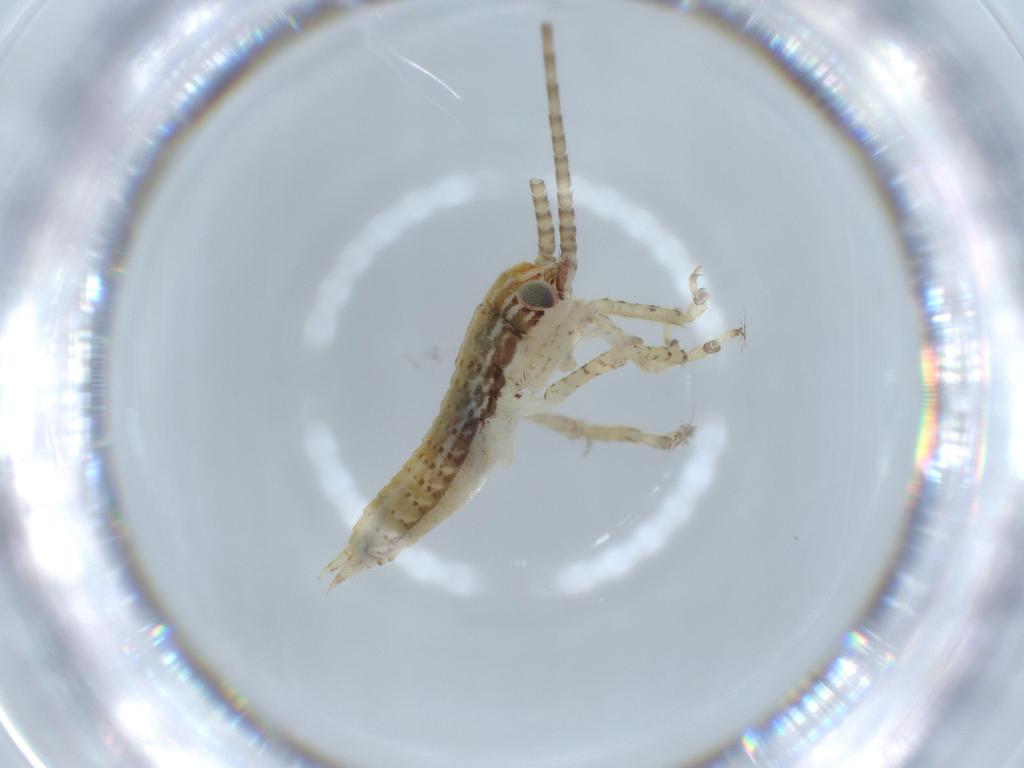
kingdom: Animalia
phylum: Arthropoda
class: Insecta
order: Orthoptera
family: Gryllidae
